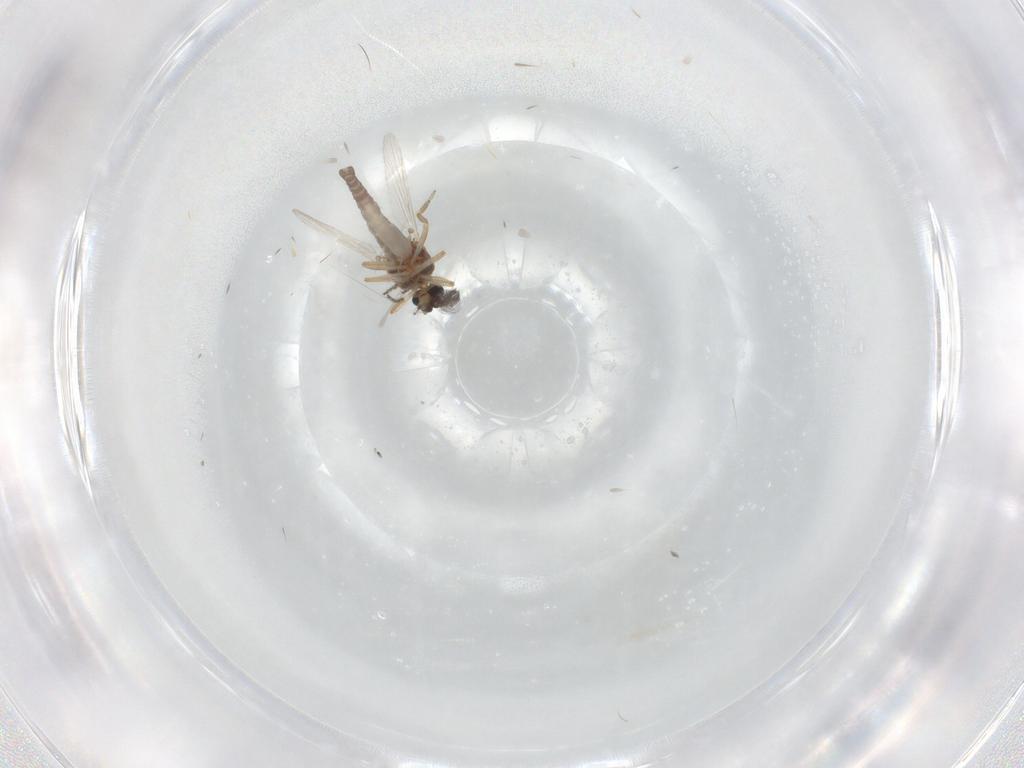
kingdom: Animalia
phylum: Arthropoda
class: Insecta
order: Diptera
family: Ceratopogonidae
